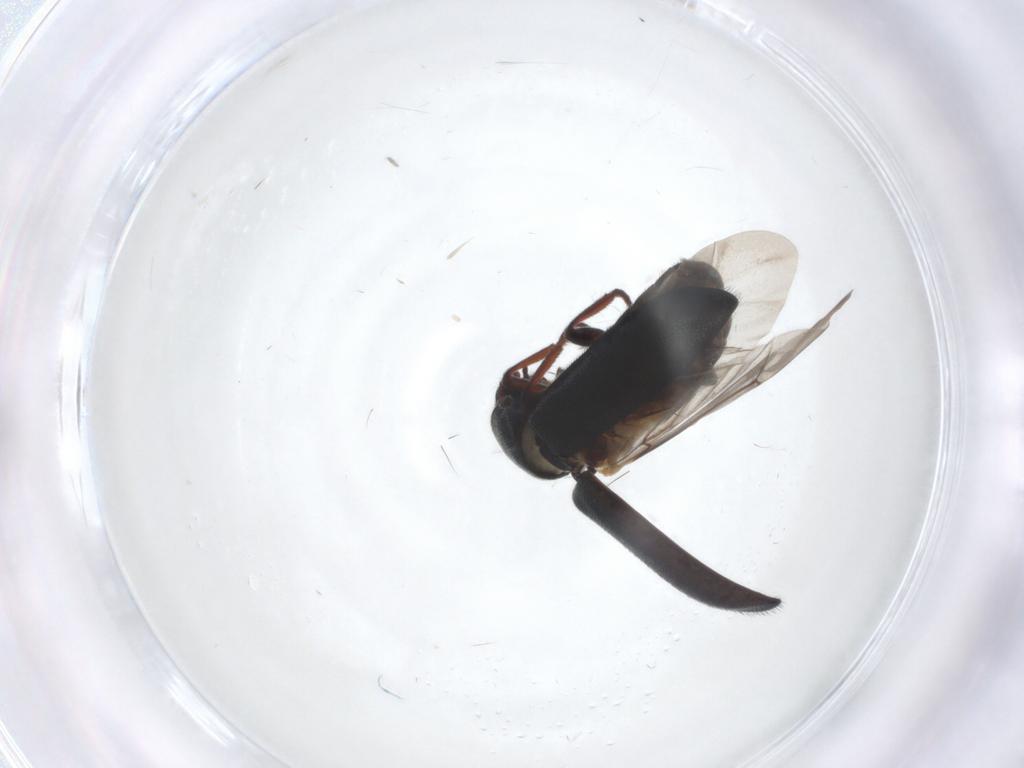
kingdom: Animalia
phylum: Arthropoda
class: Insecta
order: Coleoptera
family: Melyridae
